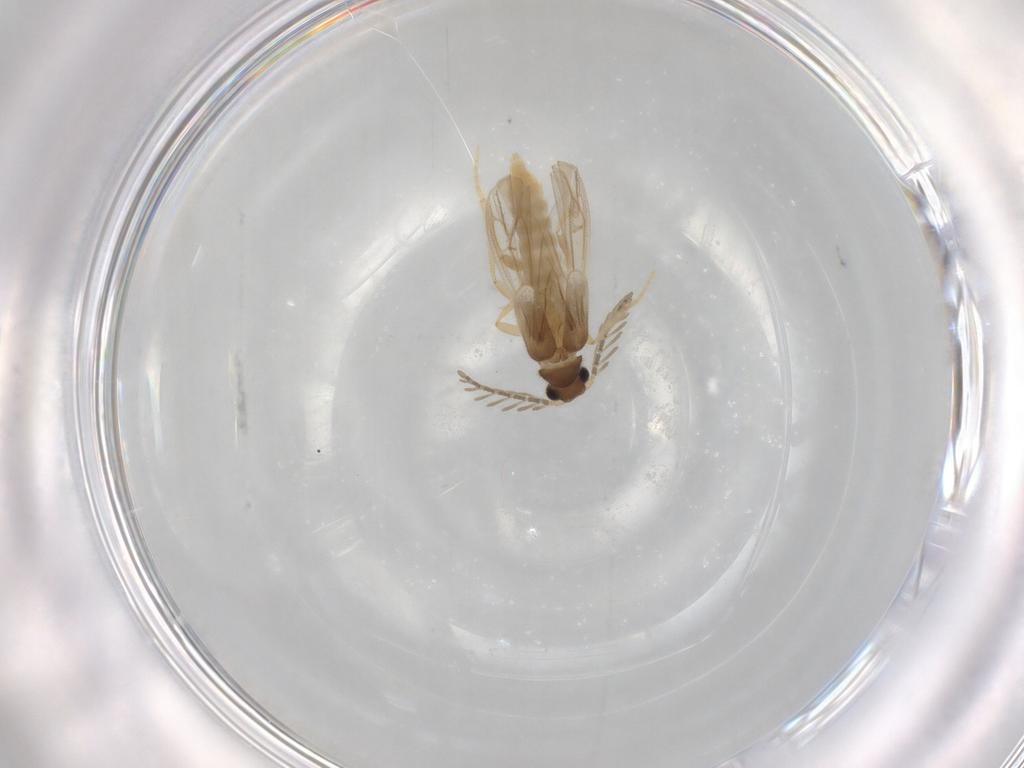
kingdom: Animalia
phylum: Arthropoda
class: Insecta
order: Coleoptera
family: Phengodidae
